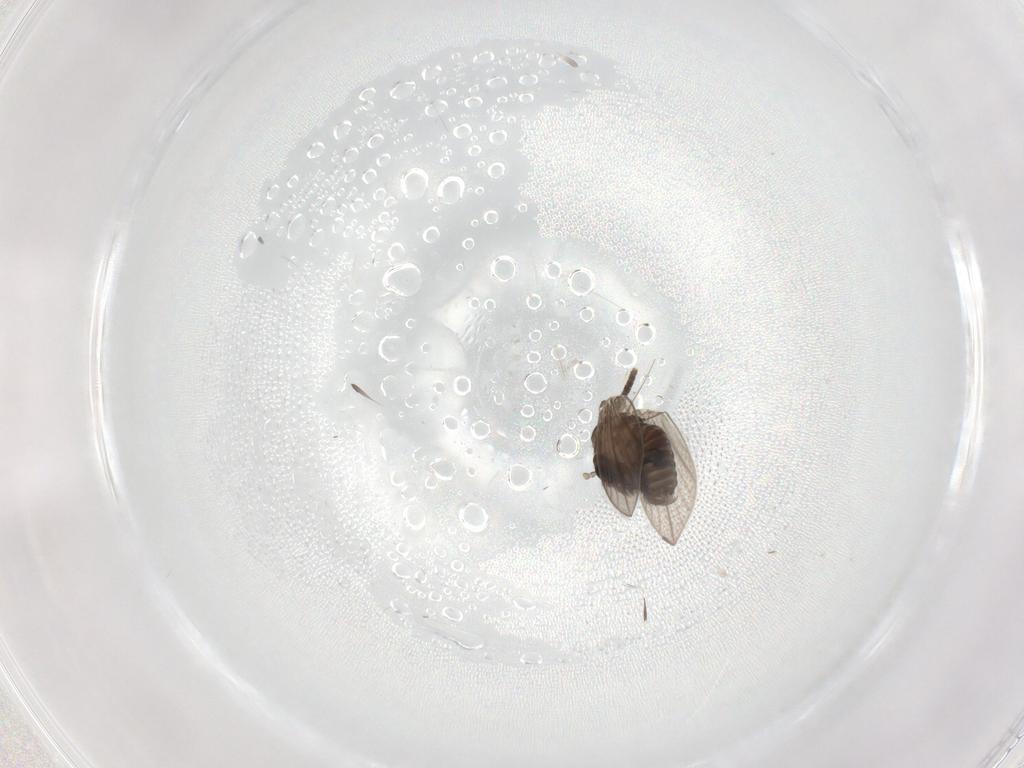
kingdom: Animalia
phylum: Arthropoda
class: Insecta
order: Diptera
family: Psychodidae
